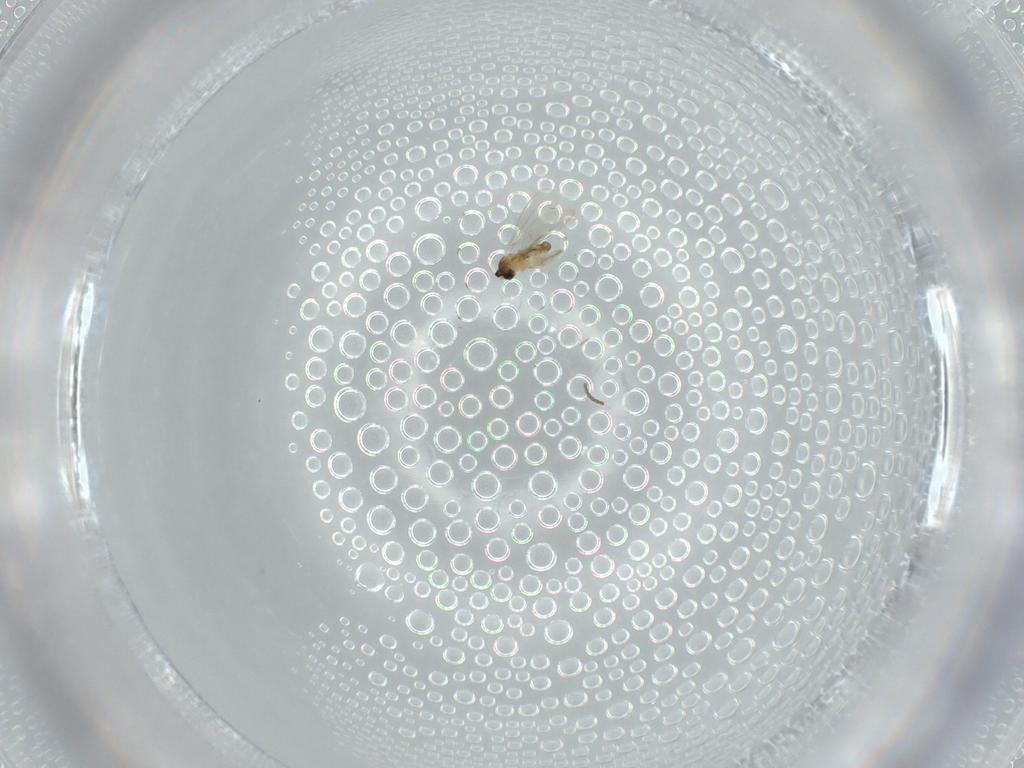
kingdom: Animalia
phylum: Arthropoda
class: Insecta
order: Diptera
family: Cecidomyiidae
